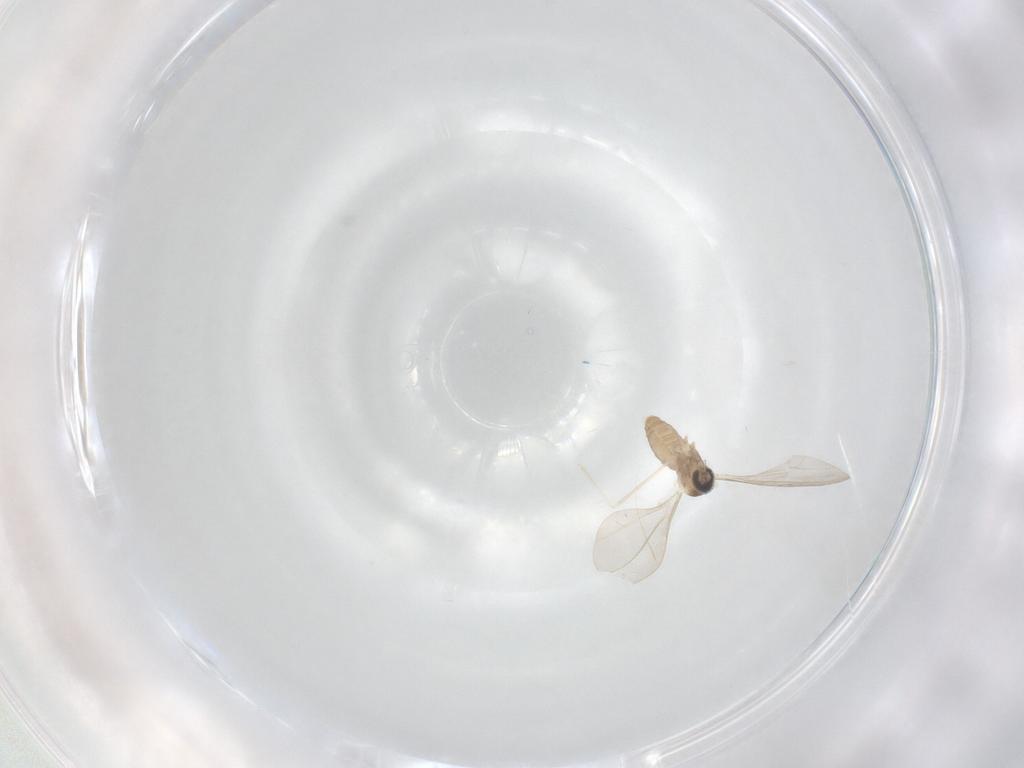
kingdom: Animalia
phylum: Arthropoda
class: Insecta
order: Diptera
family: Cecidomyiidae
